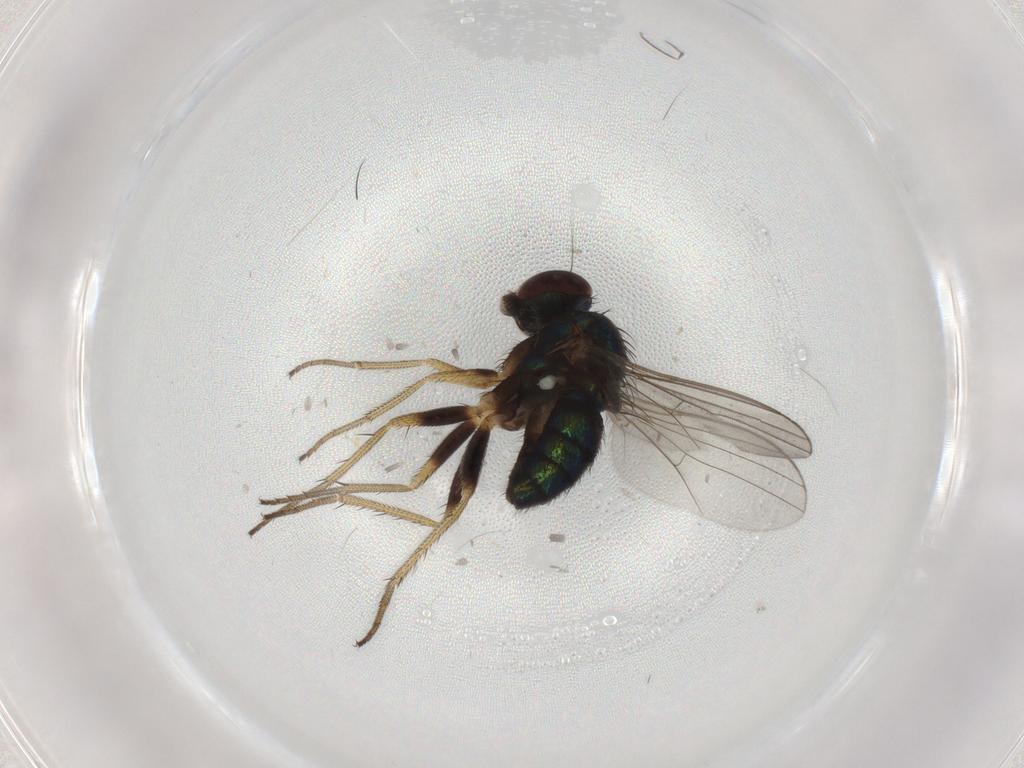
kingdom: Animalia
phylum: Arthropoda
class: Insecta
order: Diptera
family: Dolichopodidae
